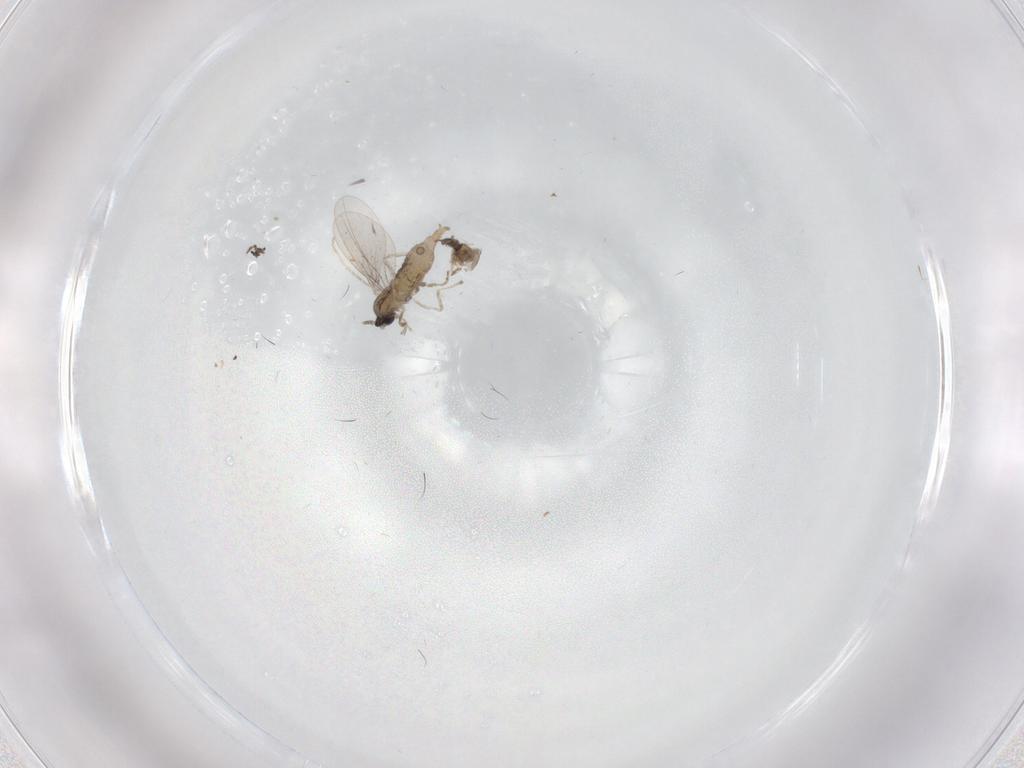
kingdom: Animalia
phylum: Arthropoda
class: Insecta
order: Diptera
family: Cecidomyiidae
